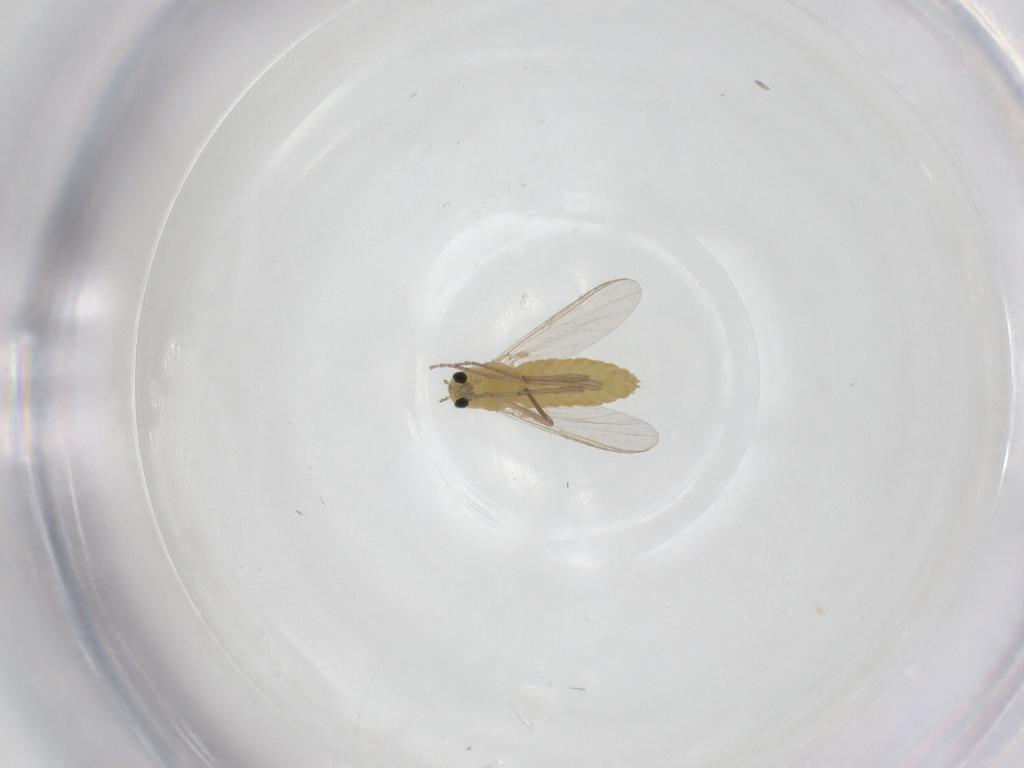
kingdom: Animalia
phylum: Arthropoda
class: Insecta
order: Diptera
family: Chironomidae
